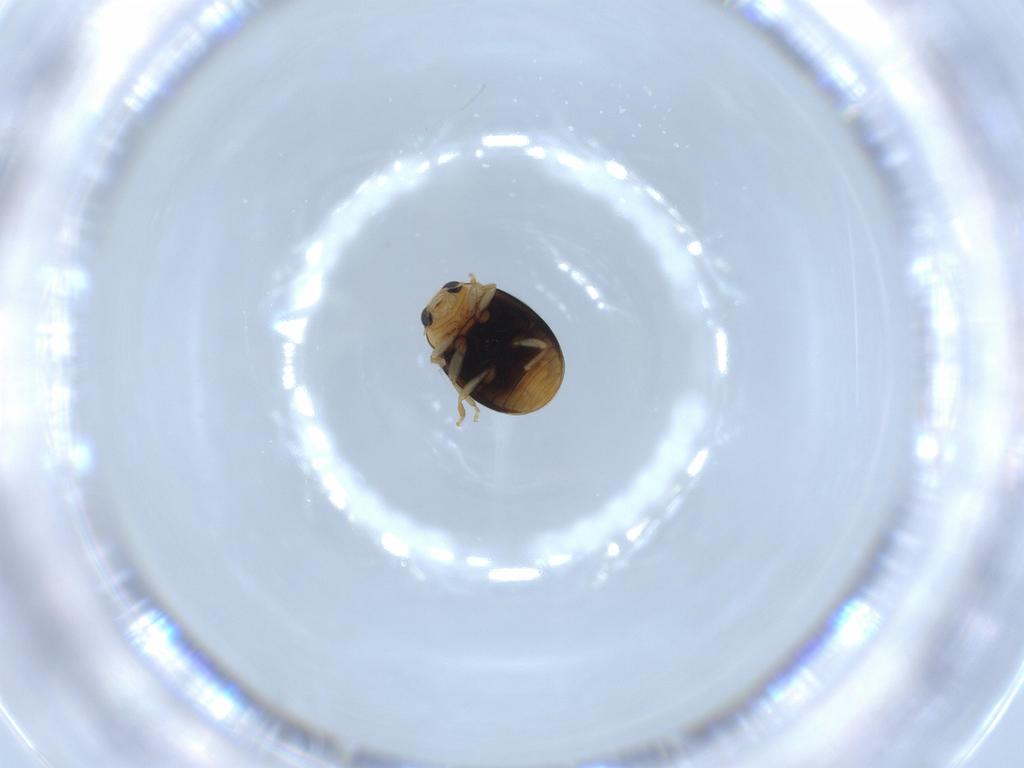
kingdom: Animalia
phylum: Arthropoda
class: Insecta
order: Coleoptera
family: Coccinellidae
